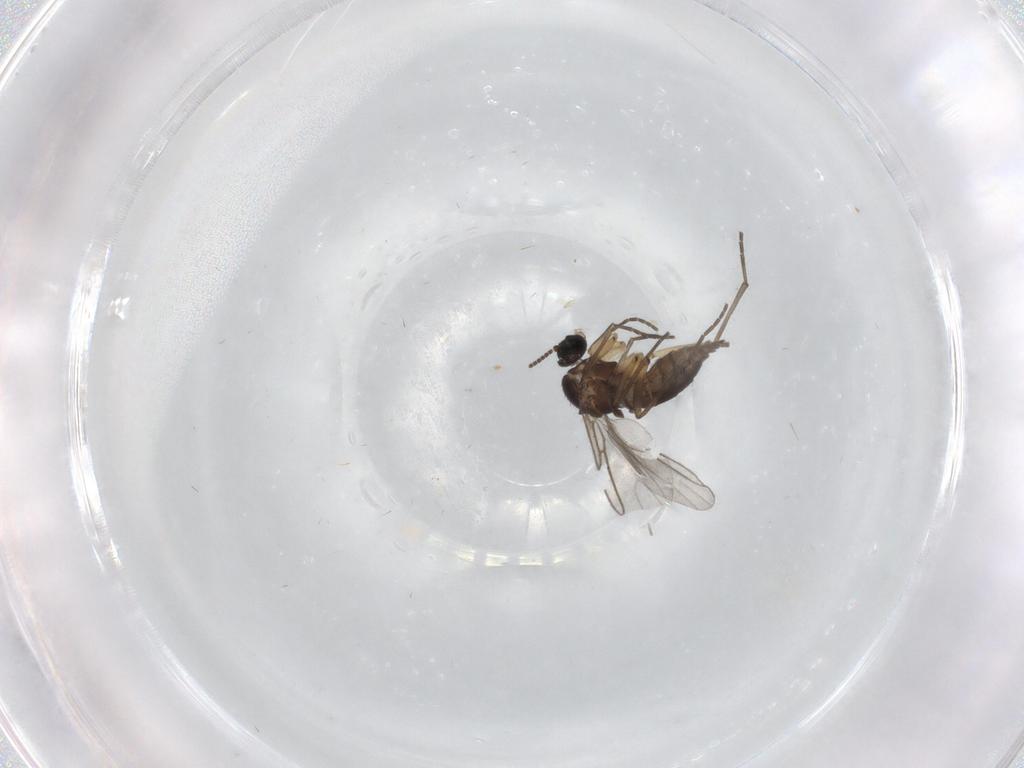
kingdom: Animalia
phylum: Arthropoda
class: Insecta
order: Diptera
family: Sciaridae
